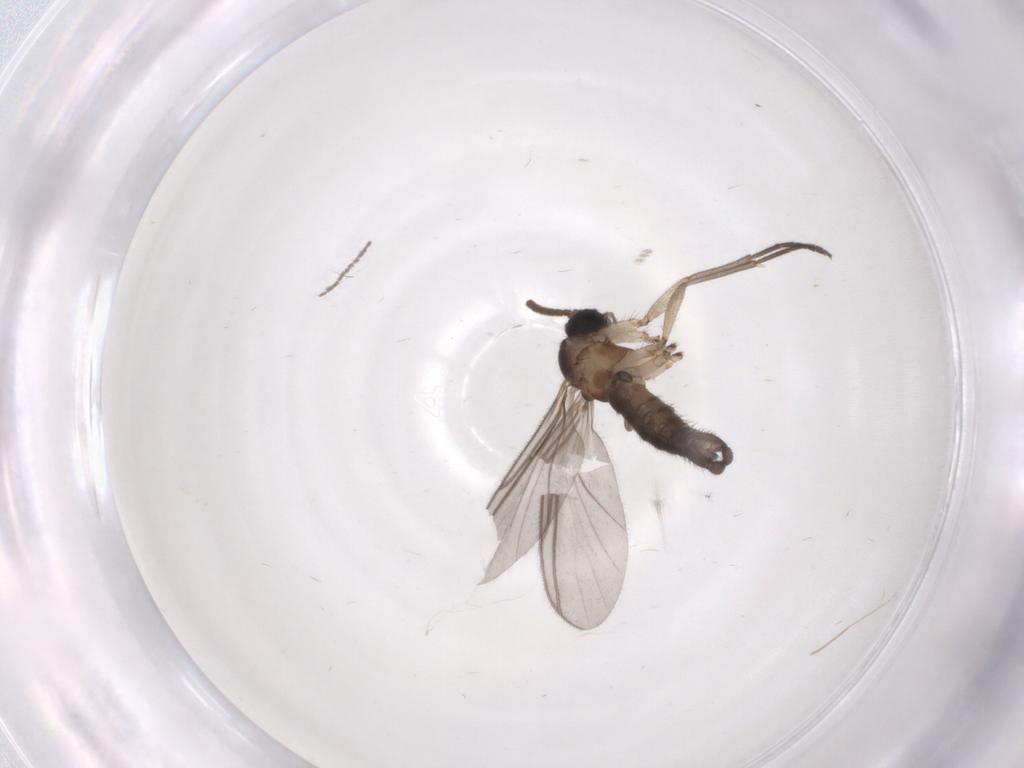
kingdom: Animalia
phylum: Arthropoda
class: Insecta
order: Diptera
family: Cecidomyiidae
